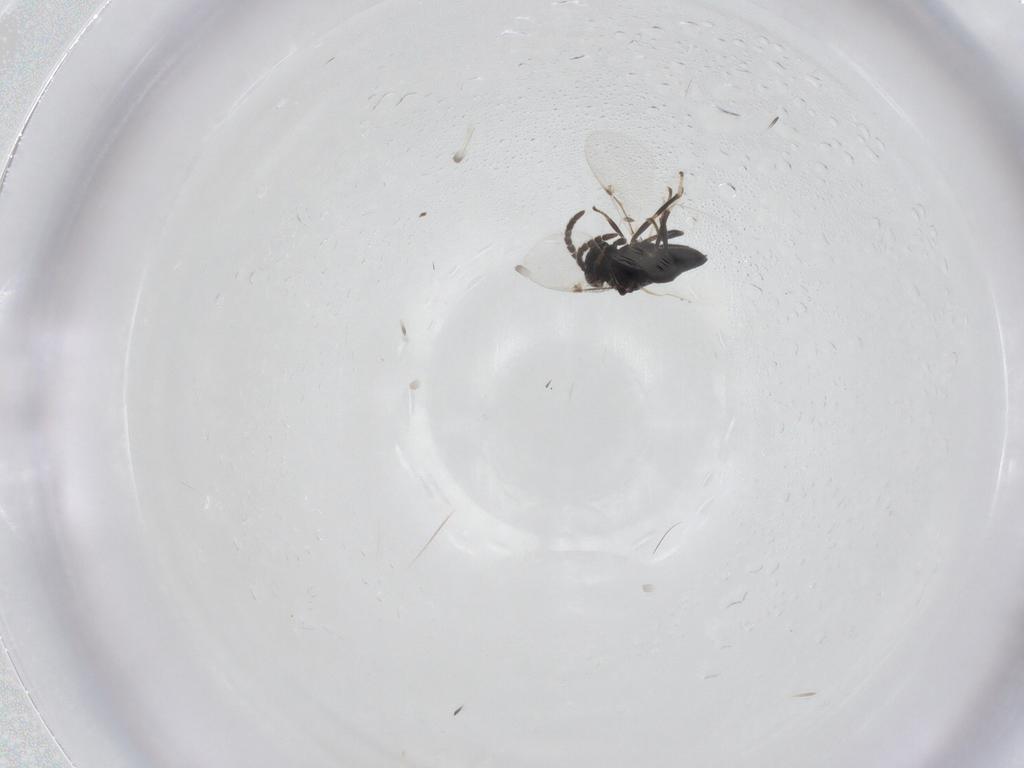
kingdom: Animalia
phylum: Arthropoda
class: Insecta
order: Hymenoptera
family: Encyrtidae
